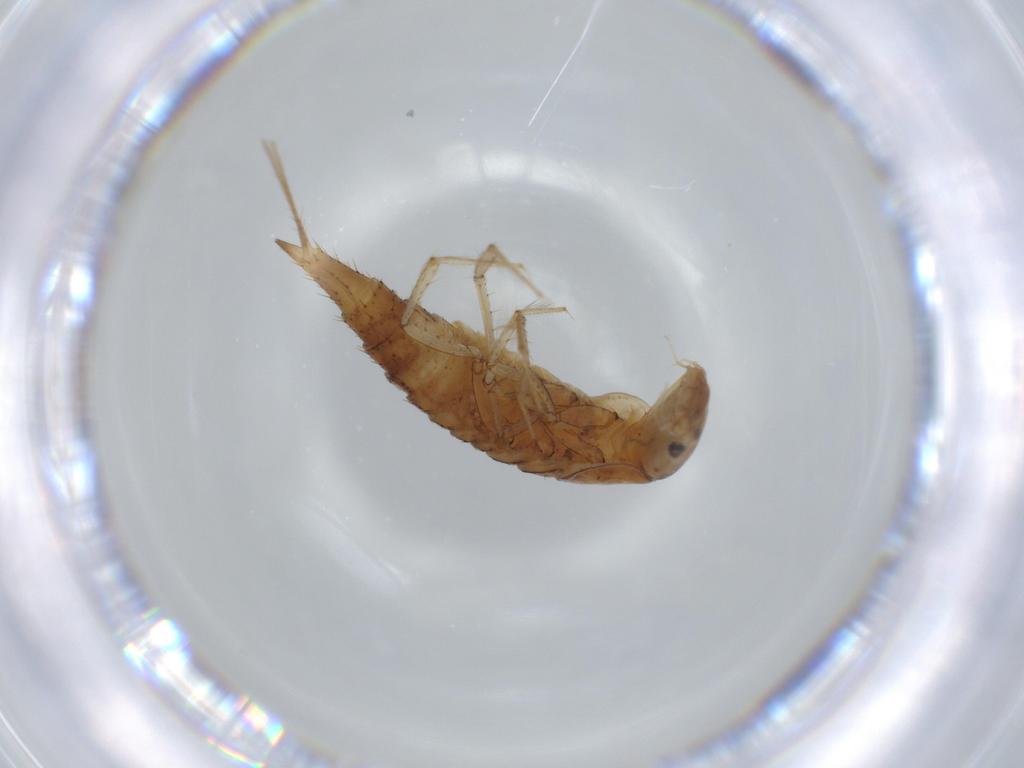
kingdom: Animalia
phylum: Arthropoda
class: Insecta
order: Coleoptera
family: Dytiscidae
